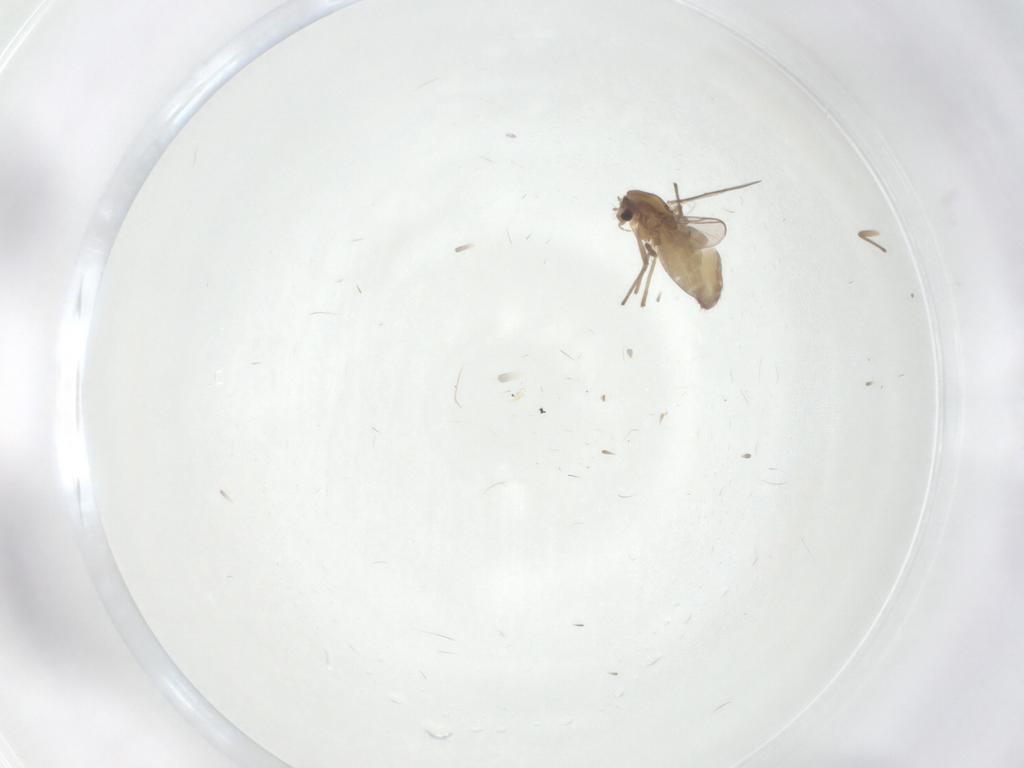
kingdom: Animalia
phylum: Arthropoda
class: Insecta
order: Diptera
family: Chironomidae
